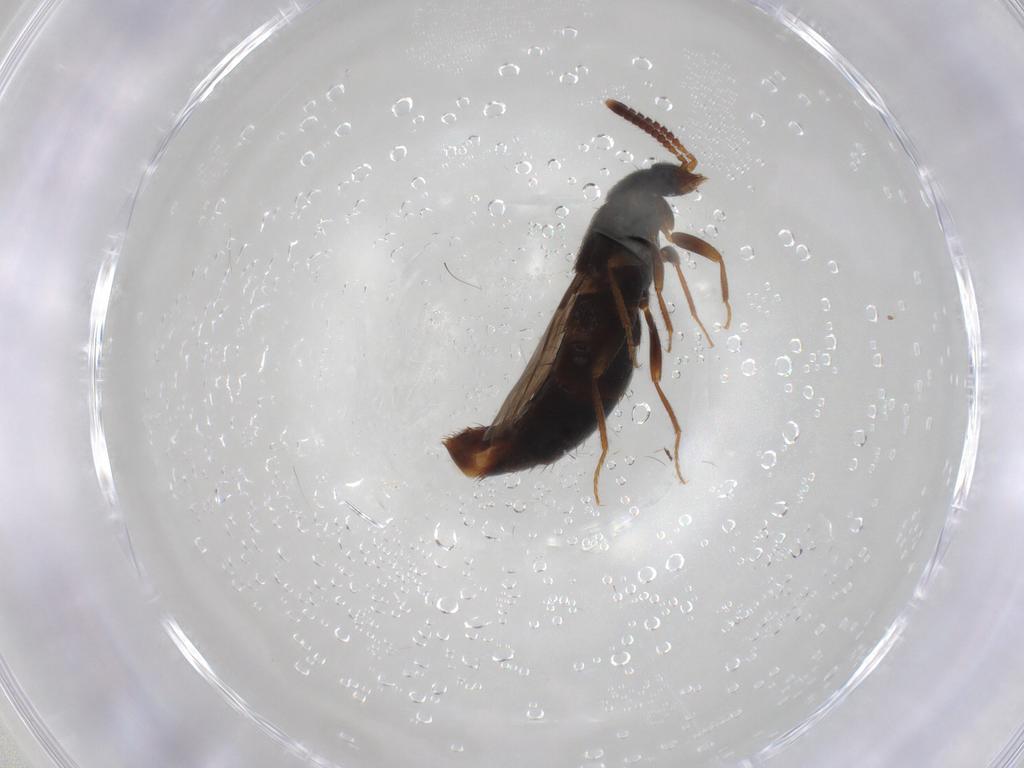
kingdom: Animalia
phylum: Arthropoda
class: Insecta
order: Coleoptera
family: Staphylinidae
